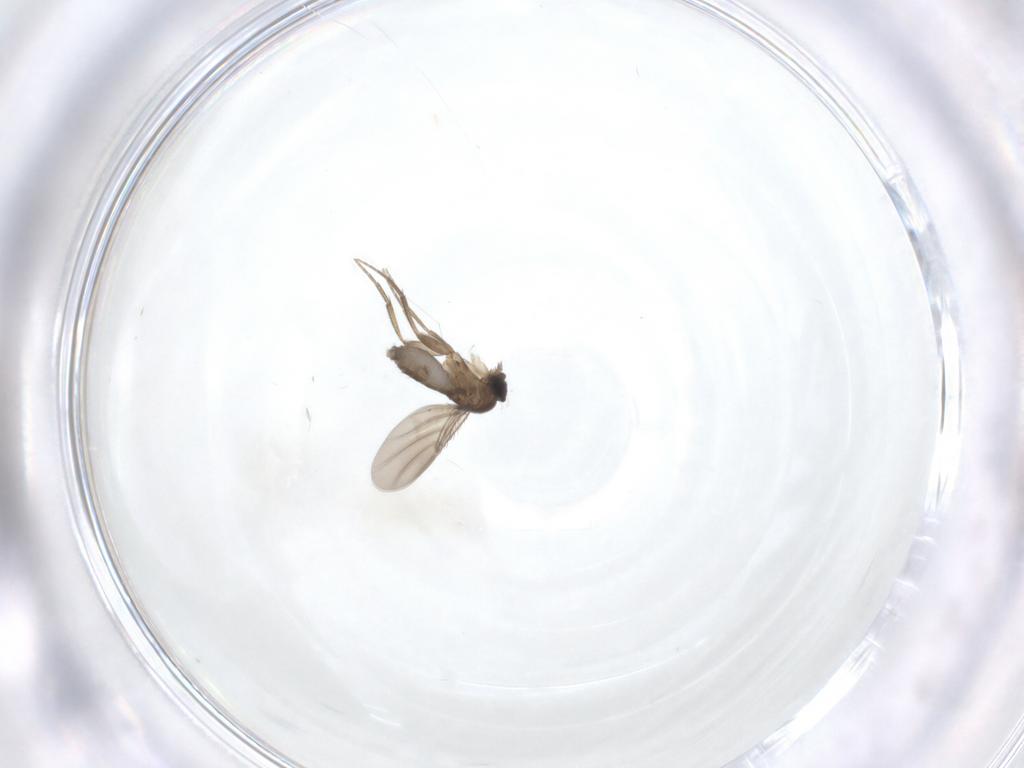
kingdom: Animalia
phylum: Arthropoda
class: Insecta
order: Diptera
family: Phoridae
